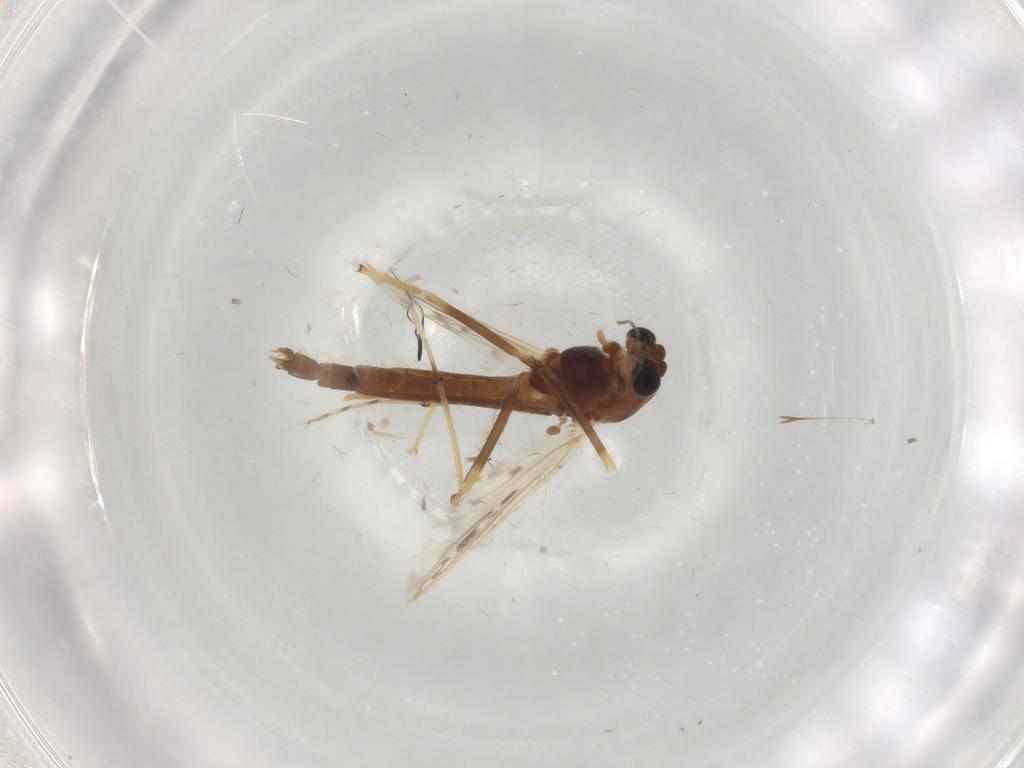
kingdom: Animalia
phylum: Arthropoda
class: Insecta
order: Diptera
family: Chironomidae
